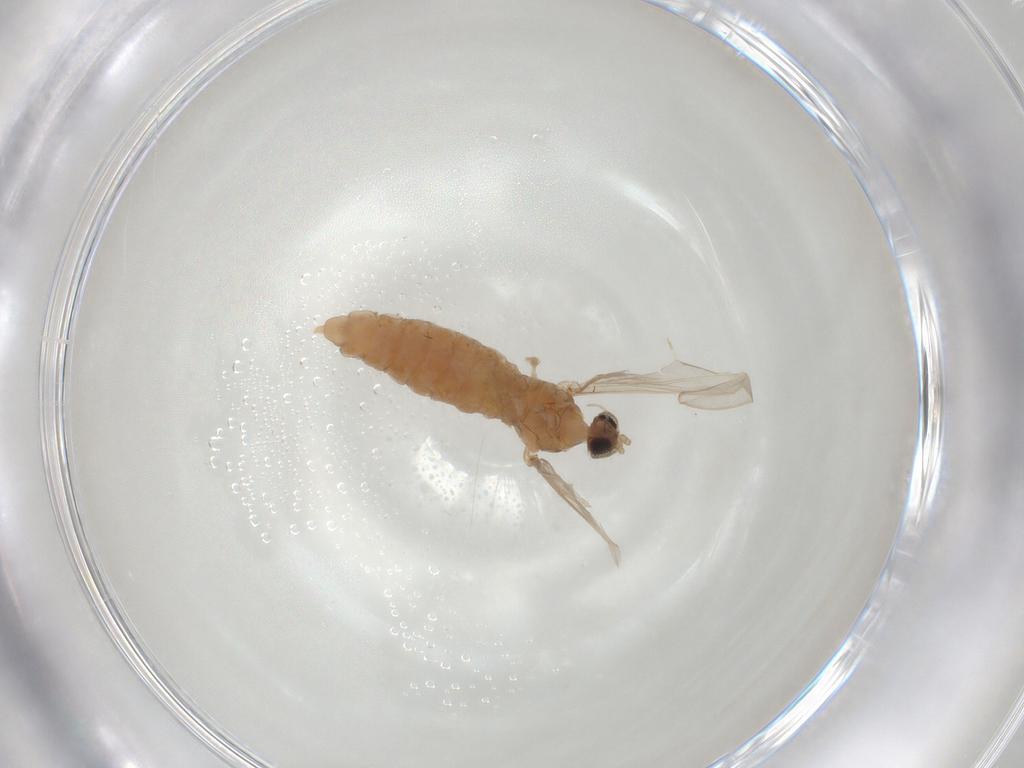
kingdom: Animalia
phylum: Arthropoda
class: Insecta
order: Diptera
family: Cecidomyiidae
